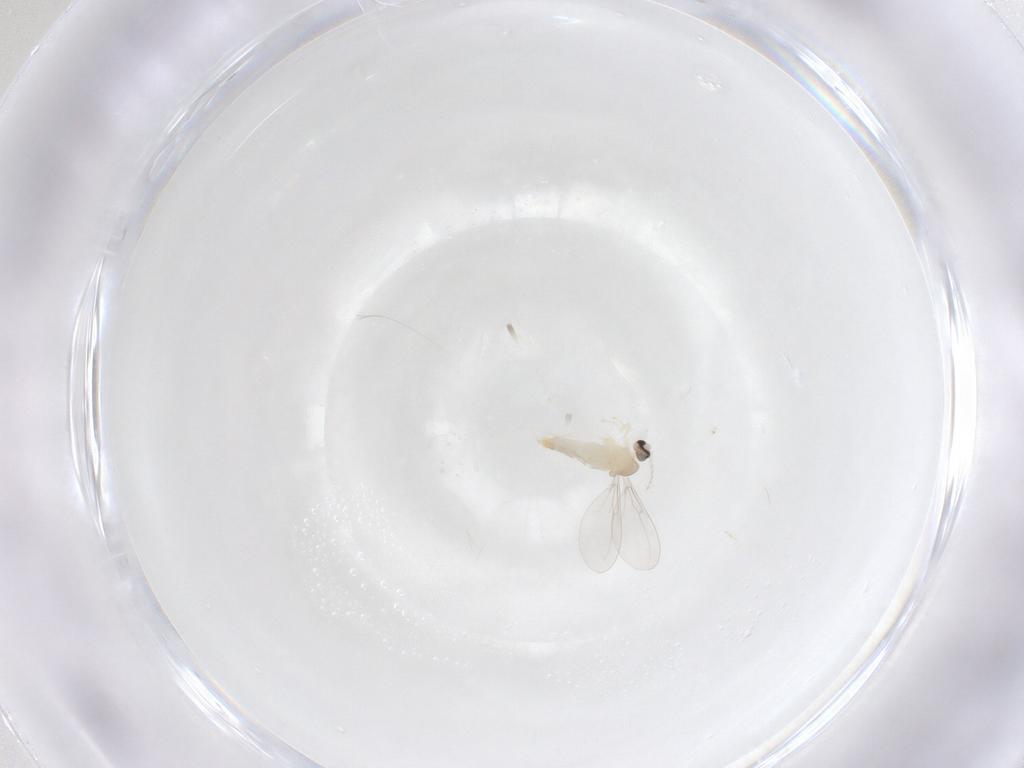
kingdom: Animalia
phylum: Arthropoda
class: Insecta
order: Diptera
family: Cecidomyiidae
